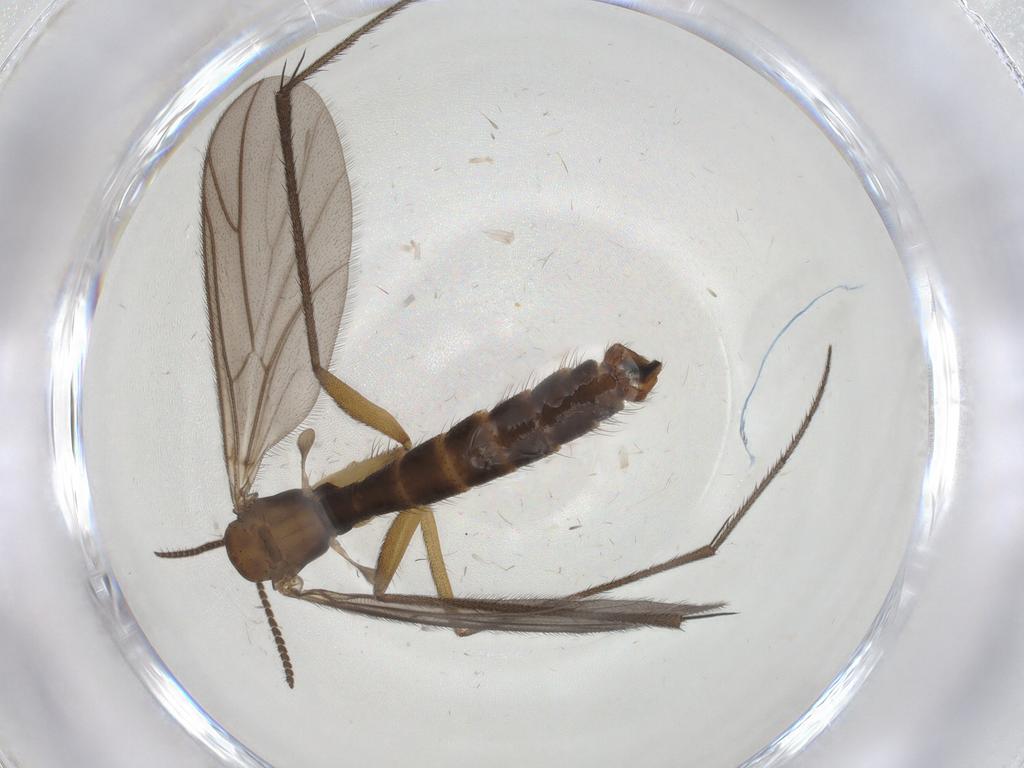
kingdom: Animalia
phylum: Arthropoda
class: Insecta
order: Diptera
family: Ditomyiidae
